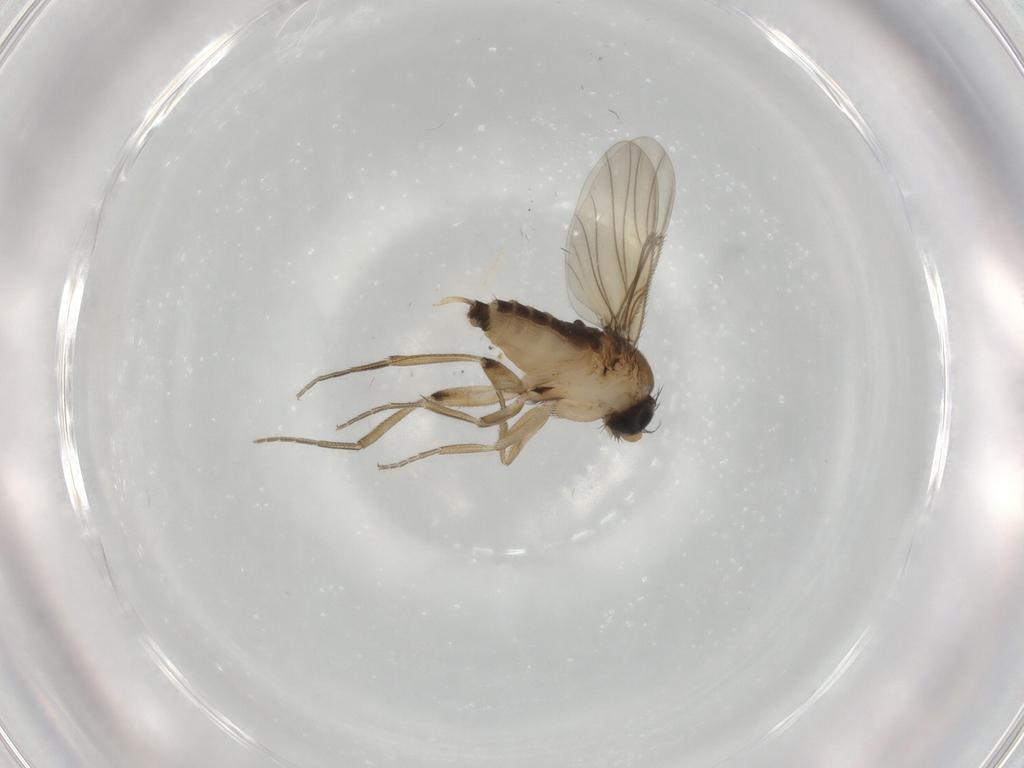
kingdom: Animalia
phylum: Arthropoda
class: Insecta
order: Diptera
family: Phoridae
